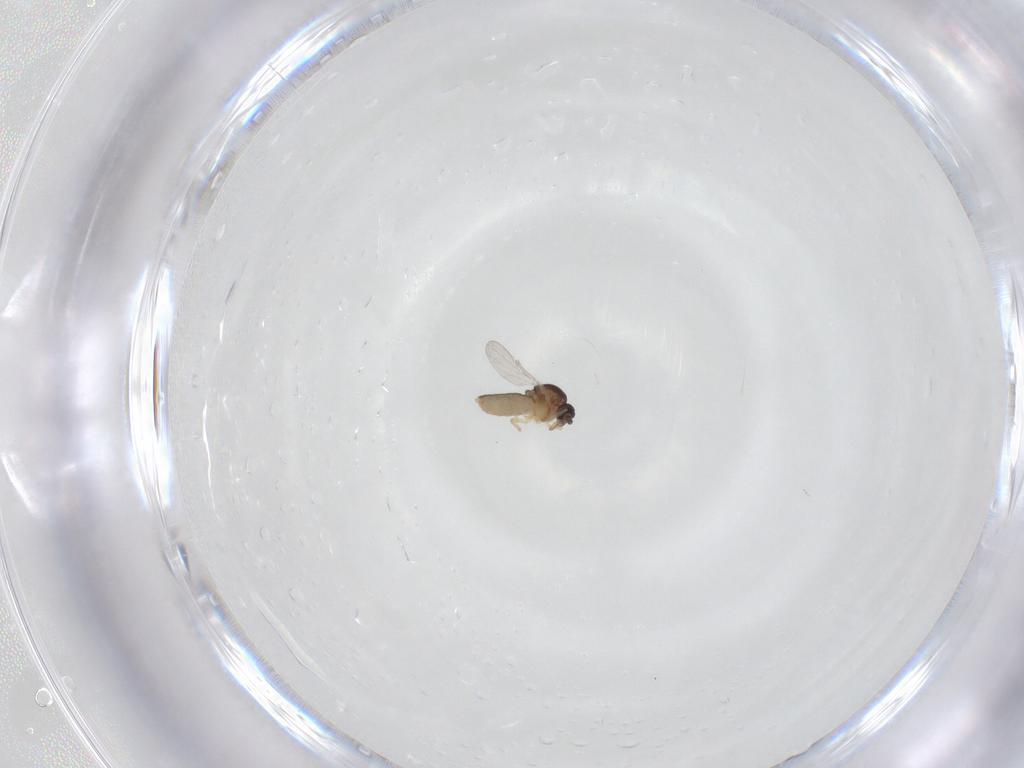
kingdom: Animalia
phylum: Arthropoda
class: Insecta
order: Diptera
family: Ceratopogonidae
